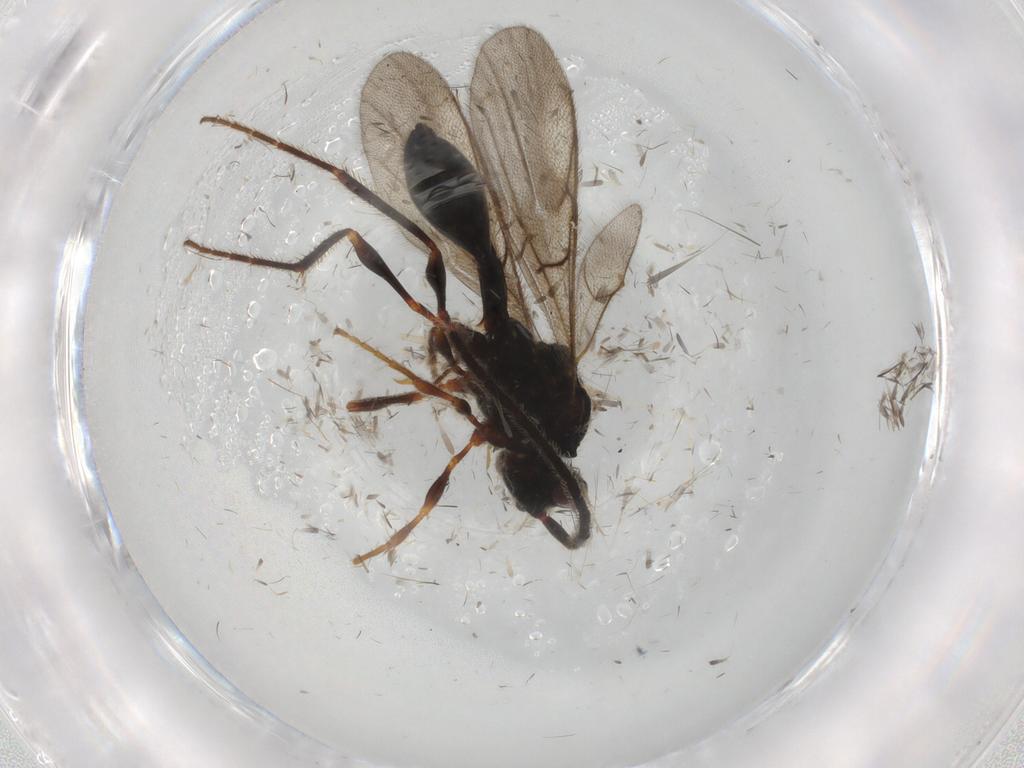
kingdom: Animalia
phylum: Arthropoda
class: Insecta
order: Hymenoptera
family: Diapriidae
